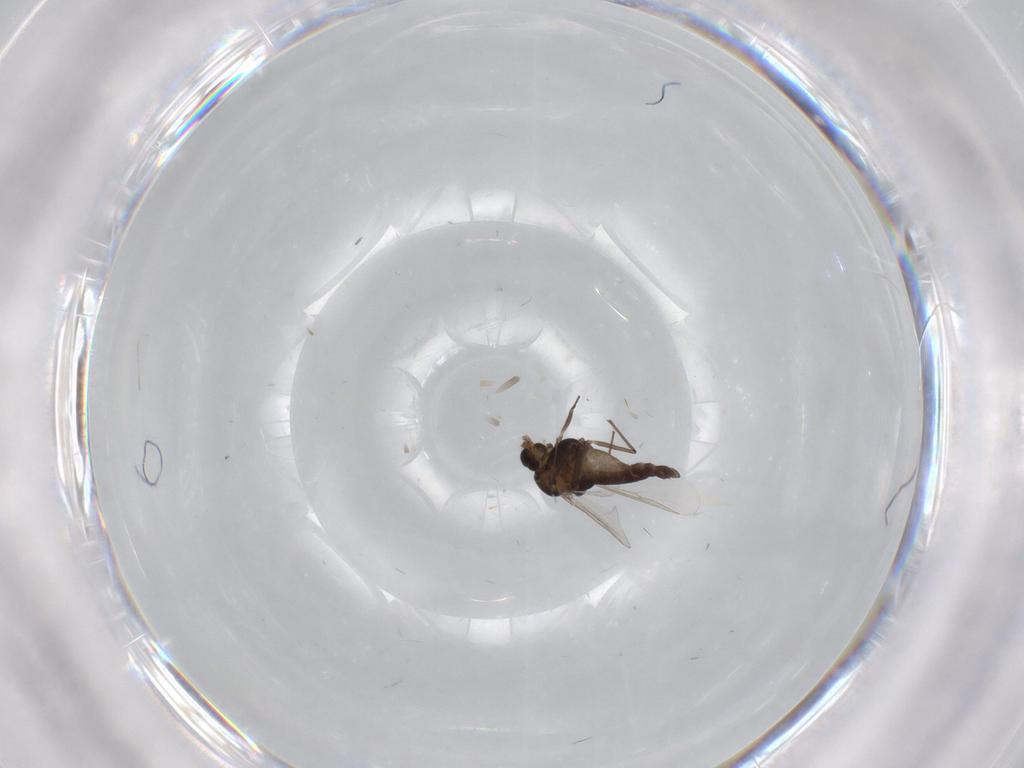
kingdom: Animalia
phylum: Arthropoda
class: Insecta
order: Diptera
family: Chironomidae
